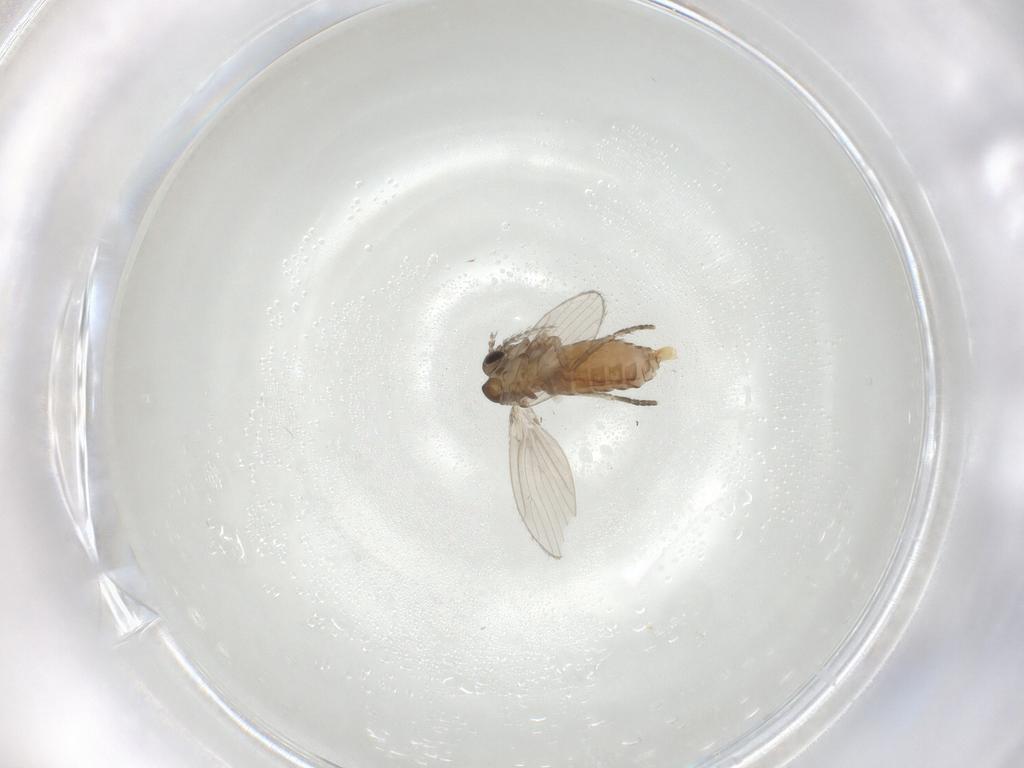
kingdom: Animalia
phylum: Arthropoda
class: Insecta
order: Diptera
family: Psychodidae
